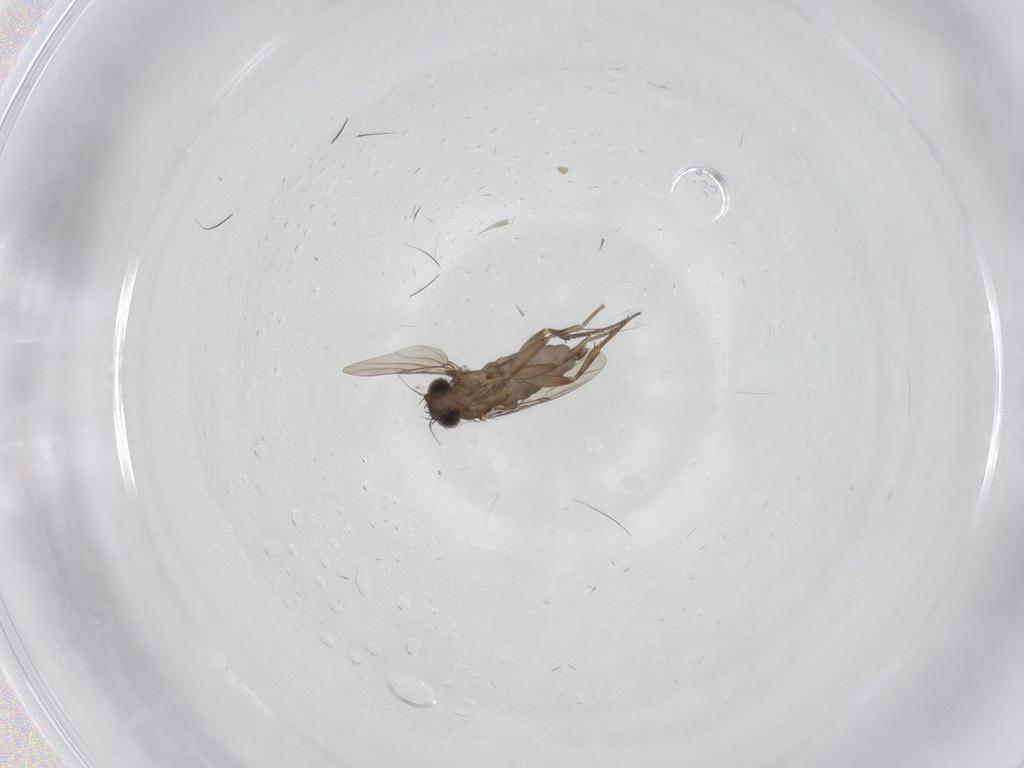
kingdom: Animalia
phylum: Arthropoda
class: Insecta
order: Diptera
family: Phoridae
